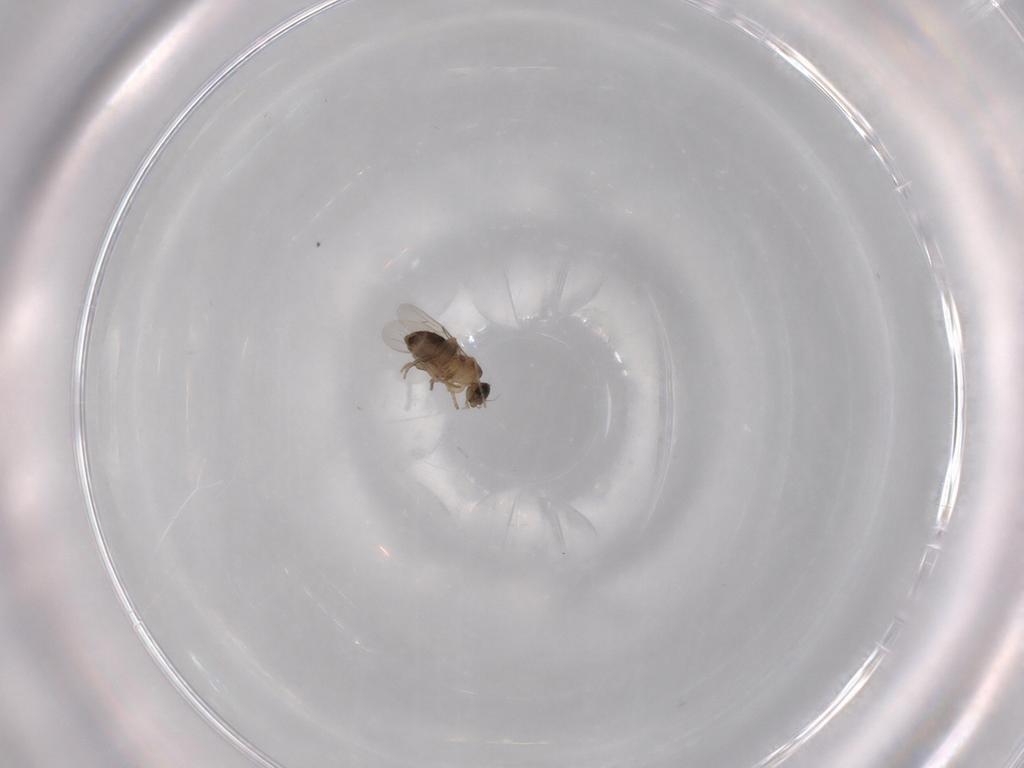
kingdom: Animalia
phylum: Arthropoda
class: Insecta
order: Diptera
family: Phoridae
